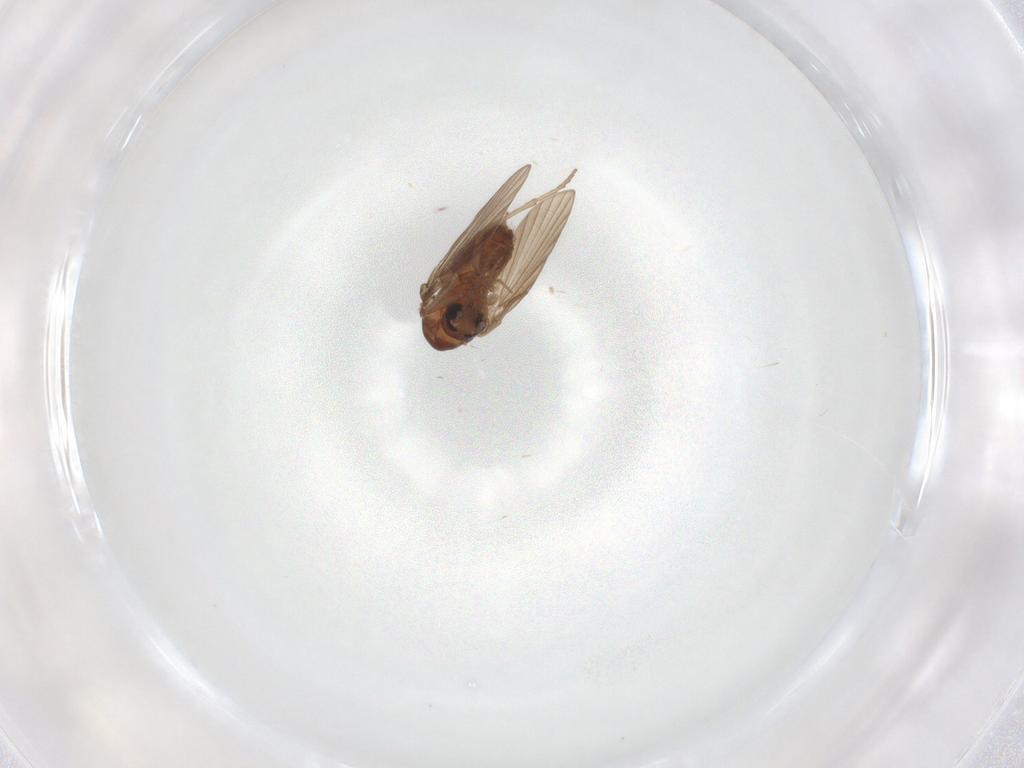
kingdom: Animalia
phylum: Arthropoda
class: Insecta
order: Diptera
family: Psychodidae
